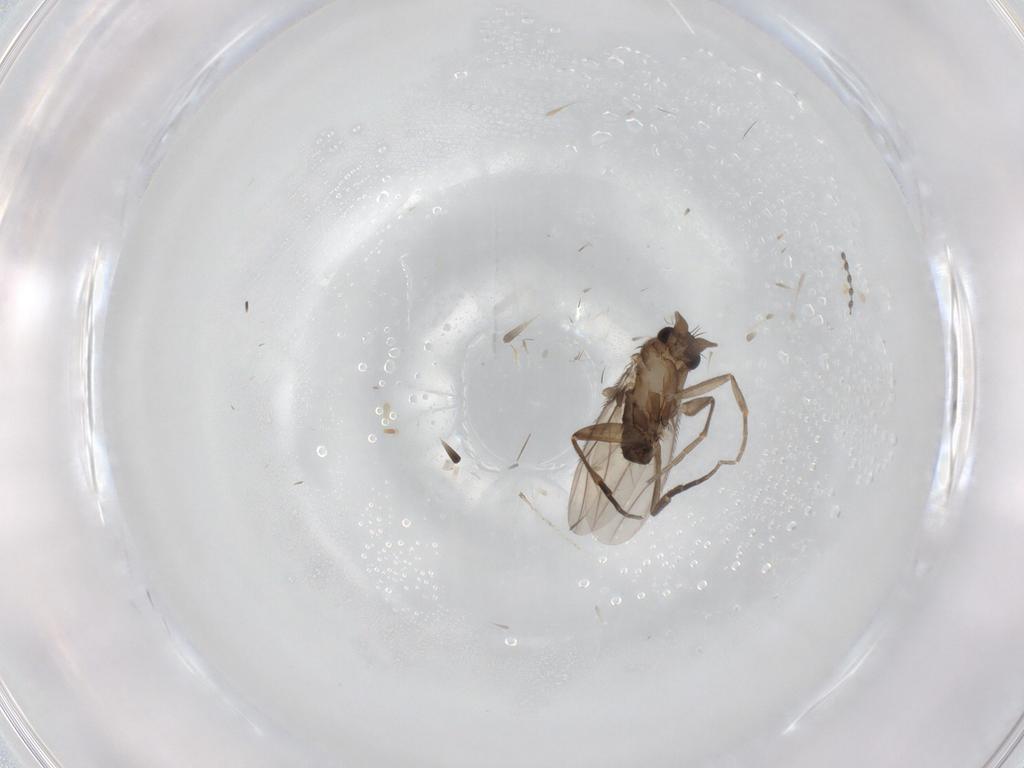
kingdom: Animalia
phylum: Arthropoda
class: Insecta
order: Diptera
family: Phoridae
